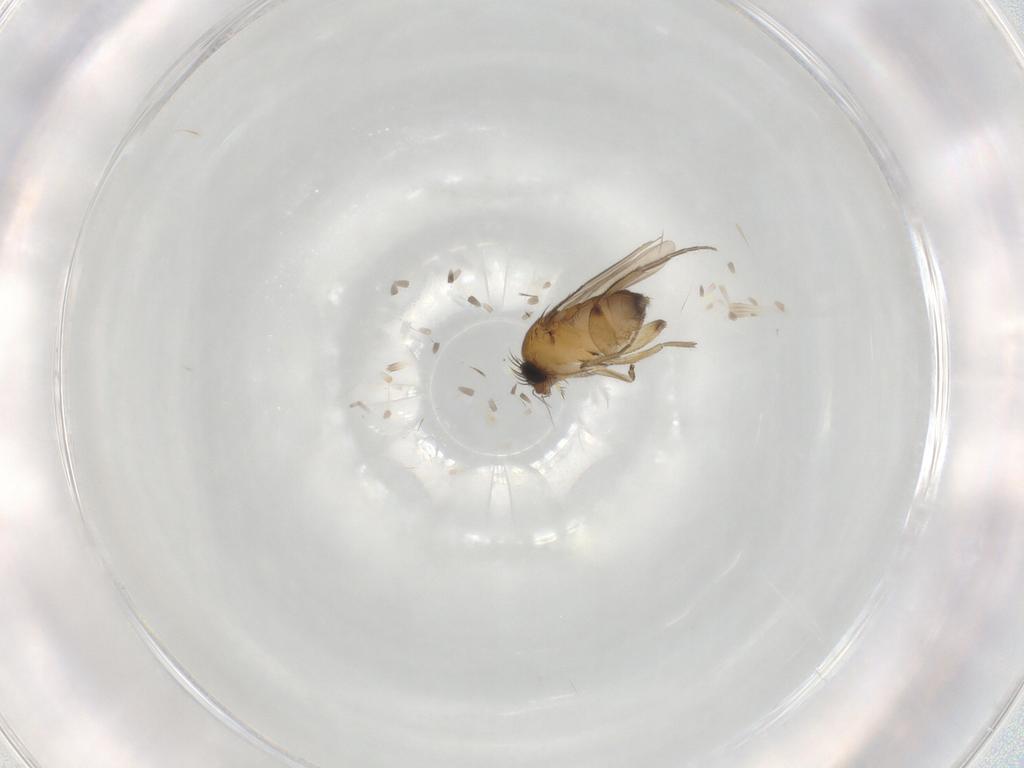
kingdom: Animalia
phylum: Arthropoda
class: Insecta
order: Diptera
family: Phoridae
